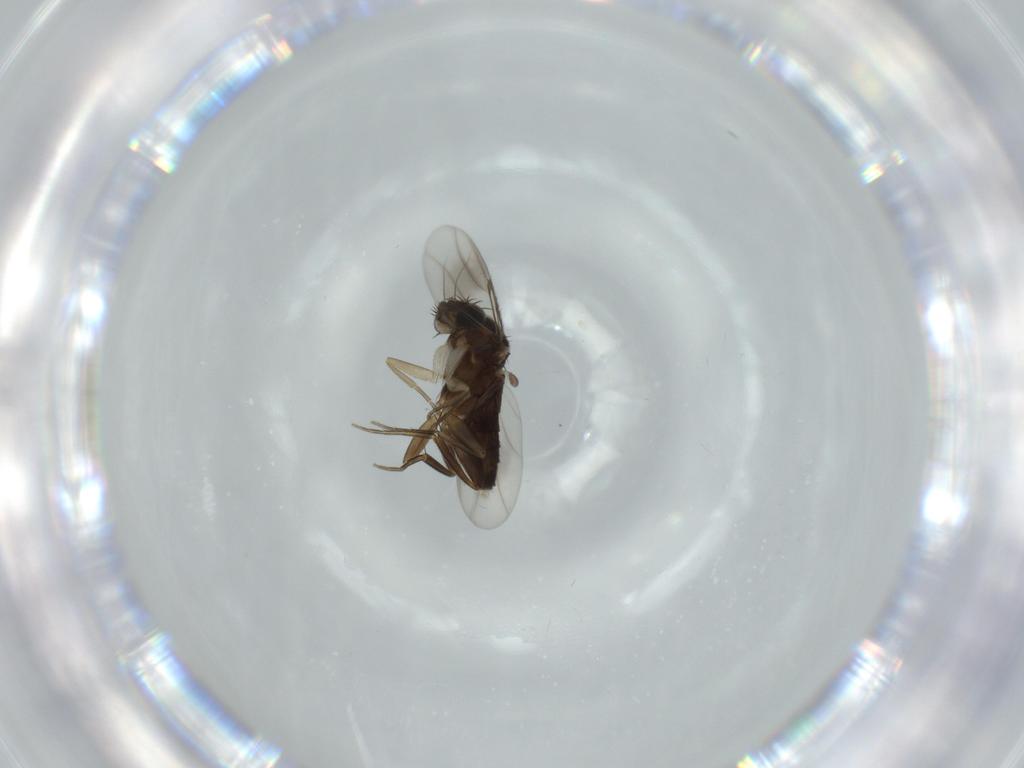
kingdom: Animalia
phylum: Arthropoda
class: Insecta
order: Diptera
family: Phoridae
